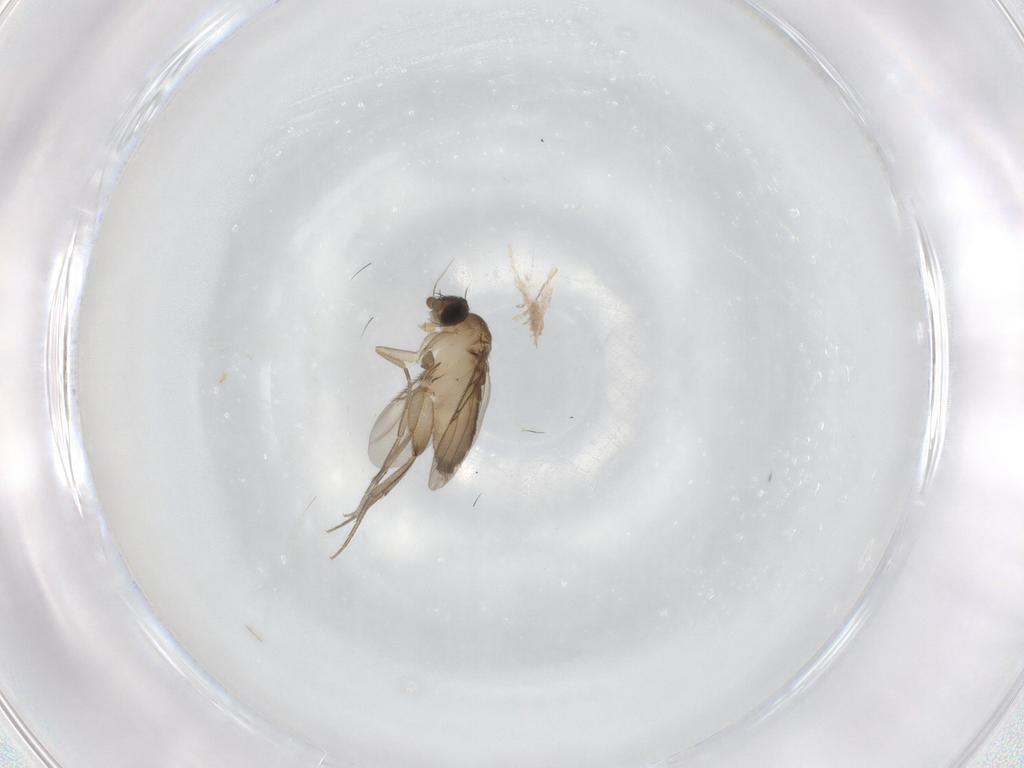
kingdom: Animalia
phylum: Arthropoda
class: Insecta
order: Diptera
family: Phoridae
